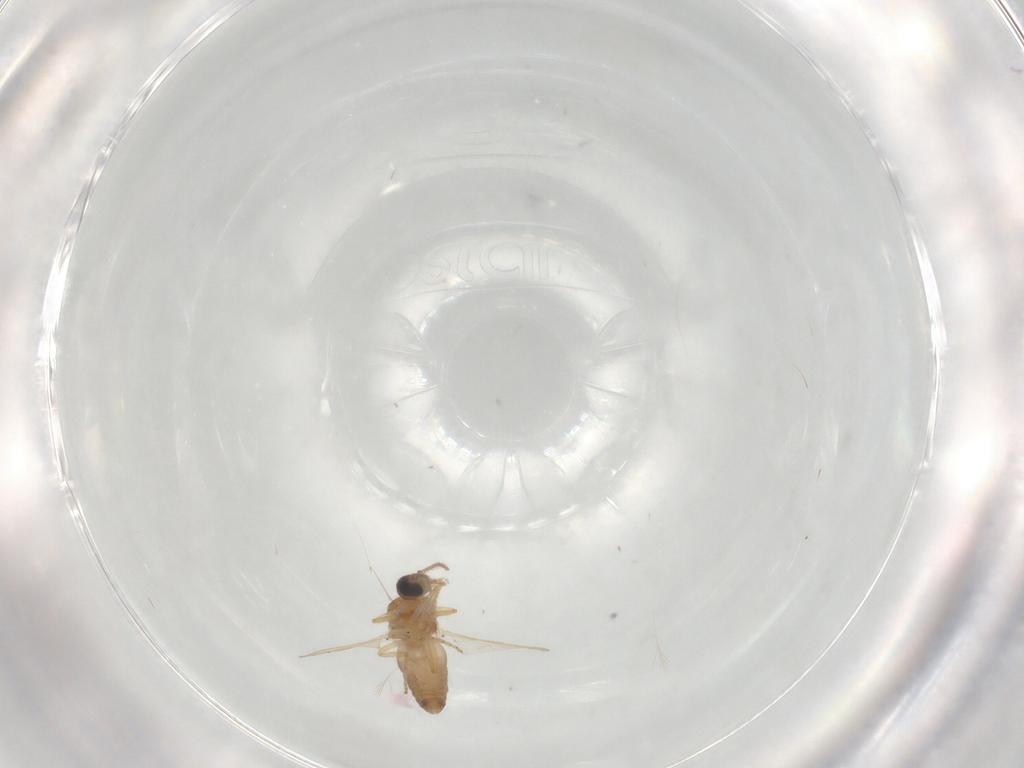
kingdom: Animalia
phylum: Arthropoda
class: Insecta
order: Diptera
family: Ceratopogonidae
